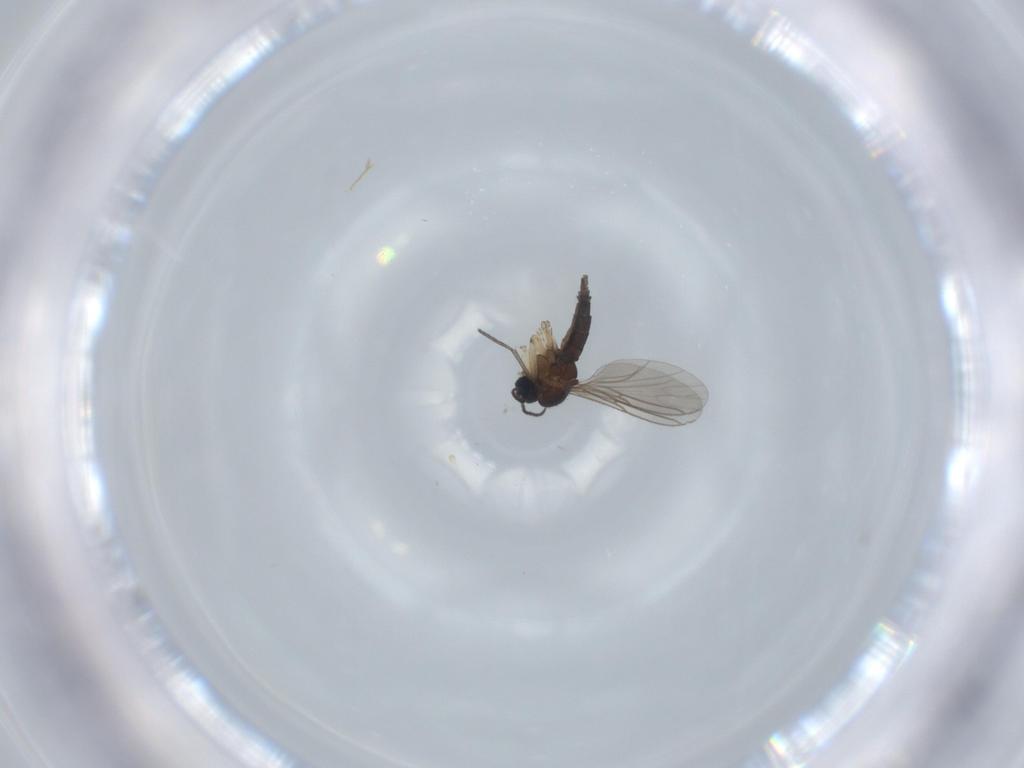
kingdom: Animalia
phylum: Arthropoda
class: Insecta
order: Diptera
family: Sciaridae
